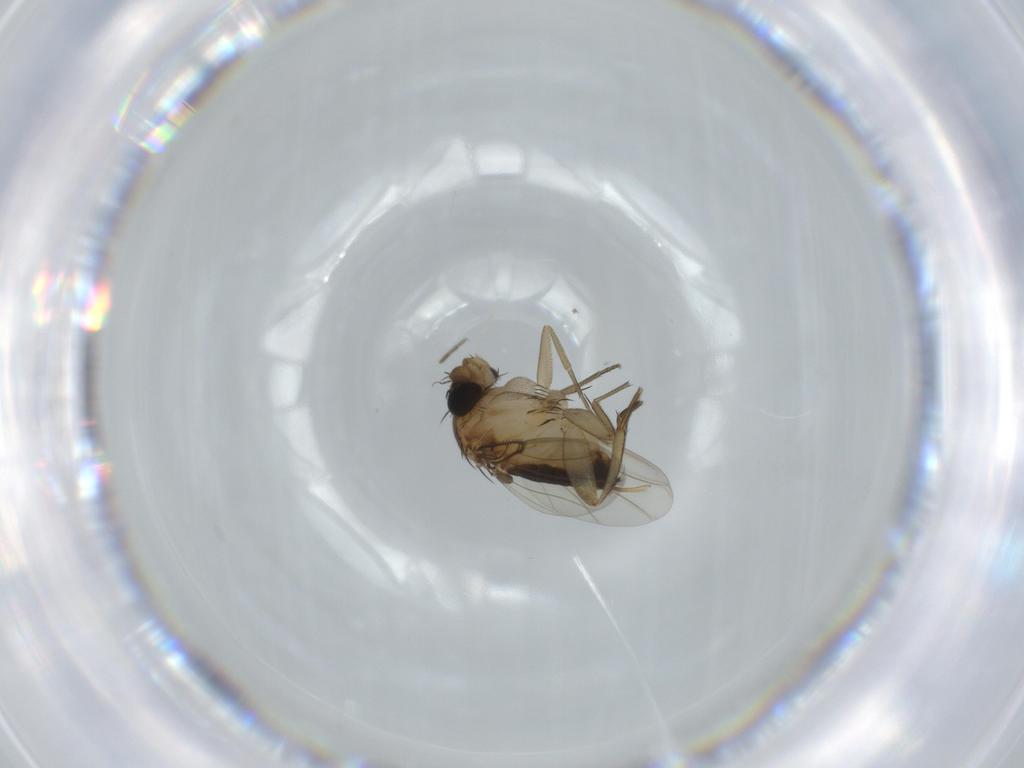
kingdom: Animalia
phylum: Arthropoda
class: Insecta
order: Diptera
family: Phoridae
